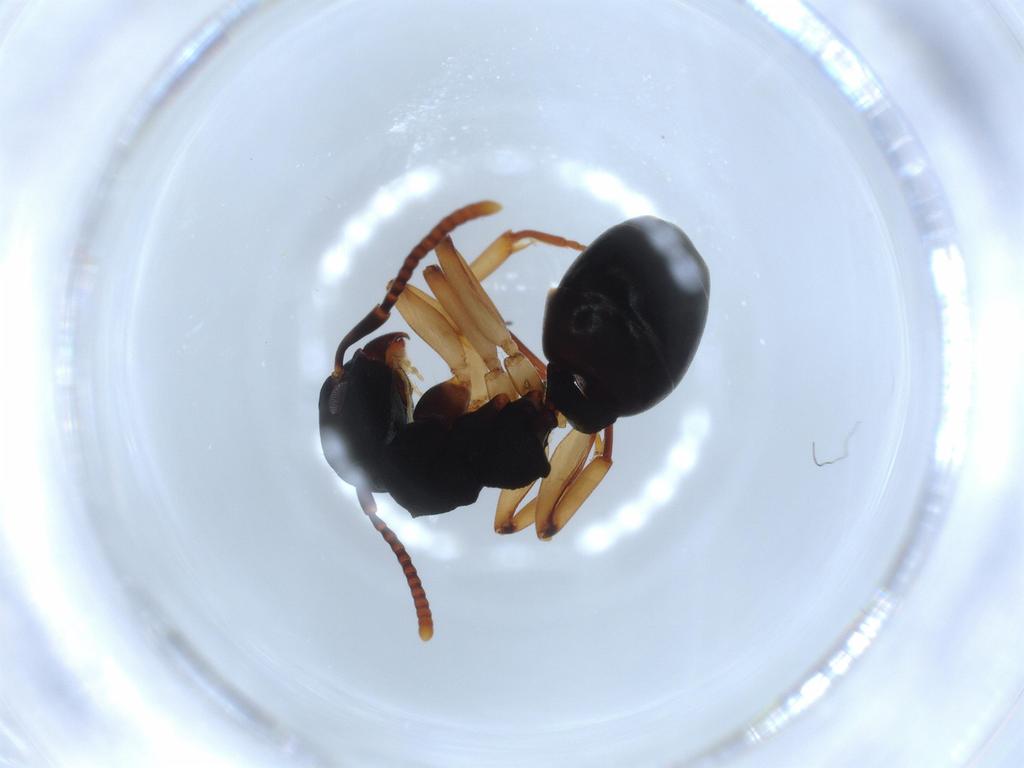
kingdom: Animalia
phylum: Arthropoda
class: Insecta
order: Hymenoptera
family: Formicidae
